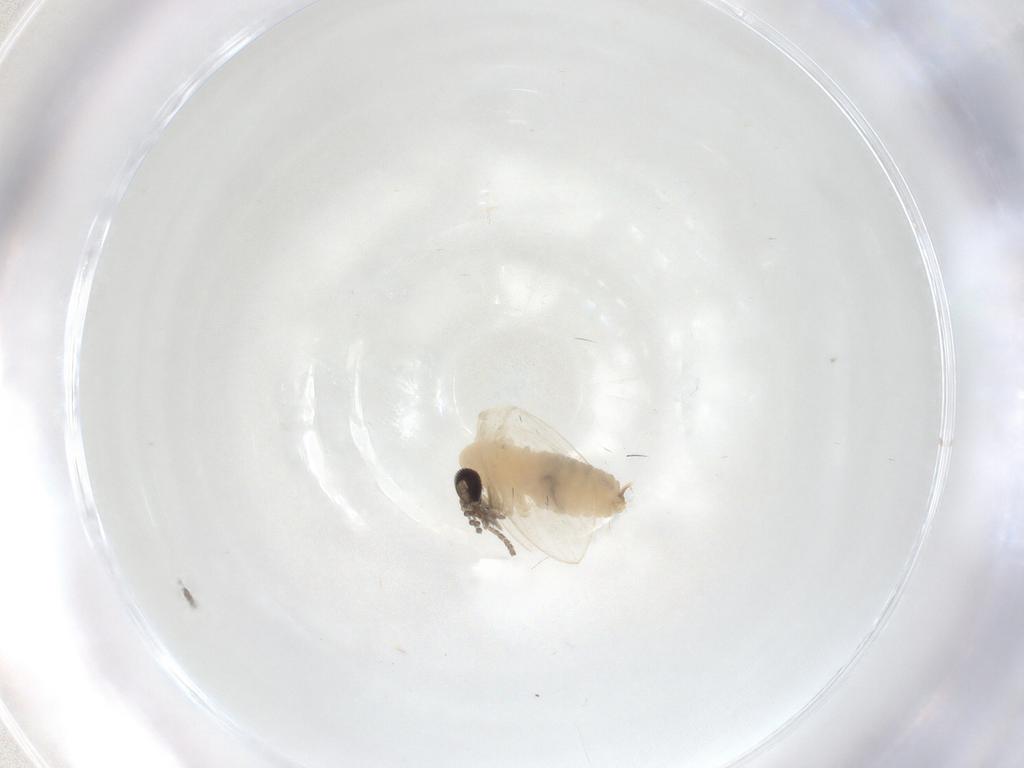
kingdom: Animalia
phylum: Arthropoda
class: Insecta
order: Diptera
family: Psychodidae
